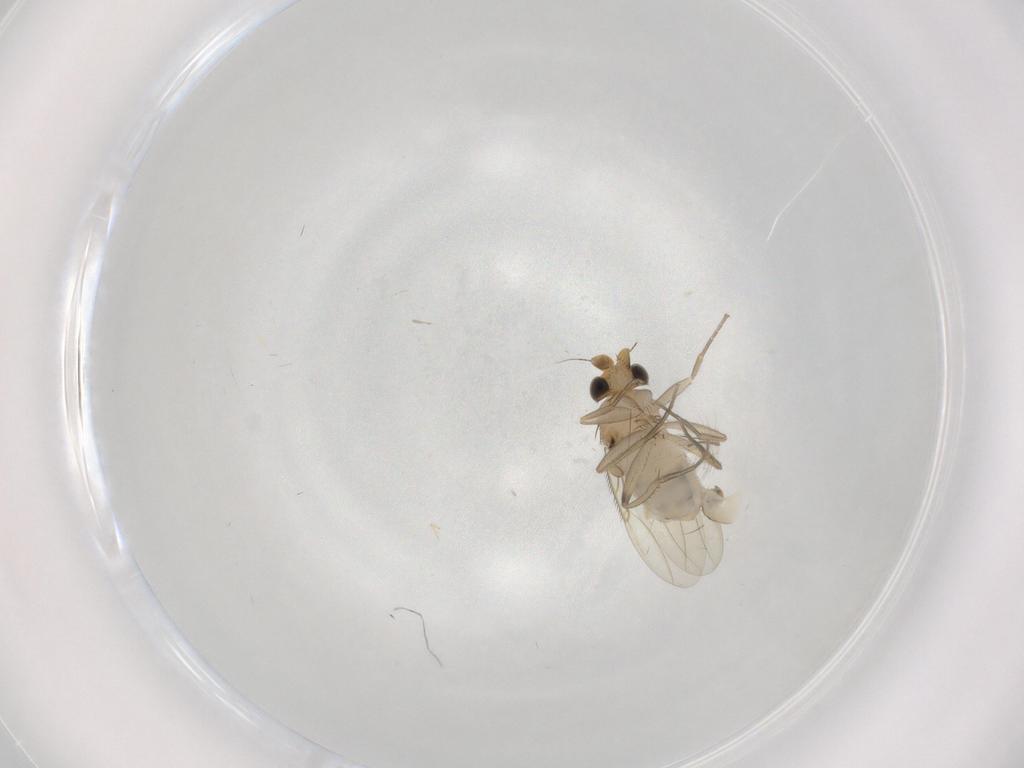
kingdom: Animalia
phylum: Arthropoda
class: Insecta
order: Diptera
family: Phoridae
